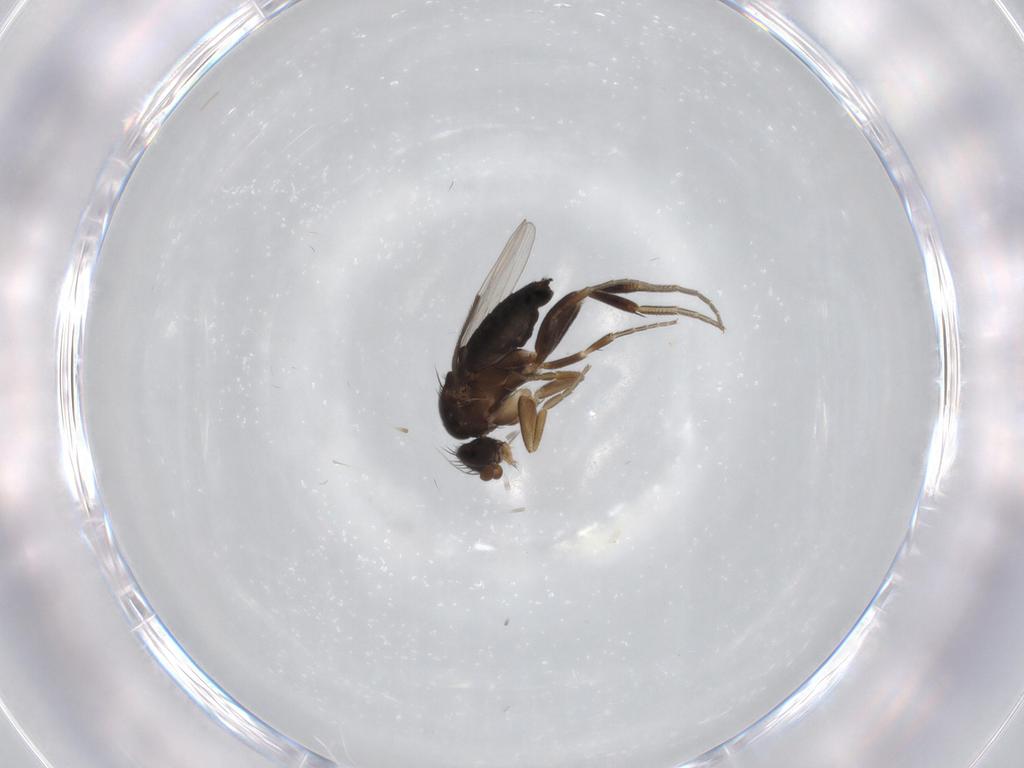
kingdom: Animalia
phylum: Arthropoda
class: Insecta
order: Diptera
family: Phoridae
